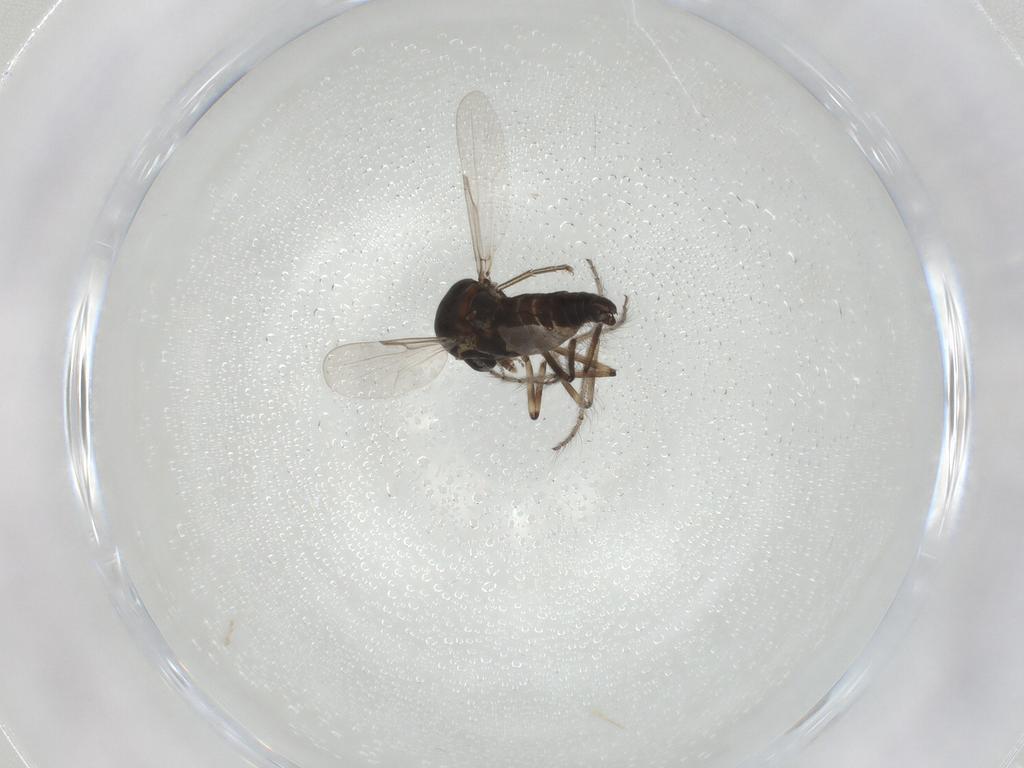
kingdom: Animalia
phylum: Arthropoda
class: Insecta
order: Diptera
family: Ceratopogonidae
